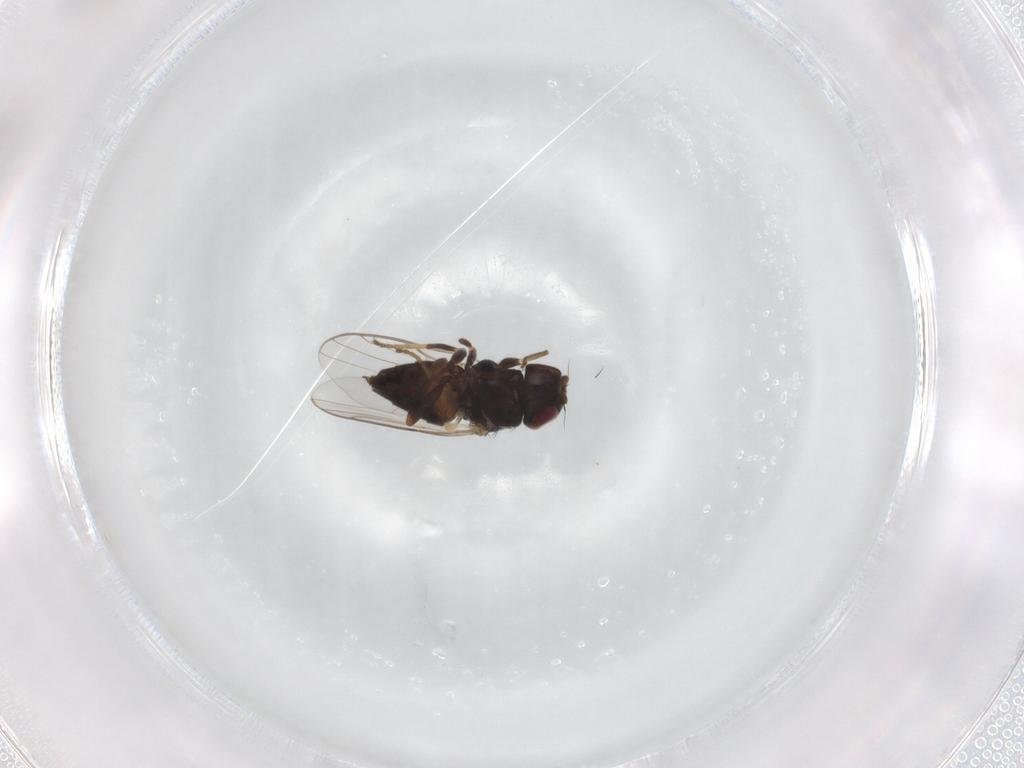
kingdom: Animalia
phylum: Arthropoda
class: Insecta
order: Diptera
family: Chloropidae
